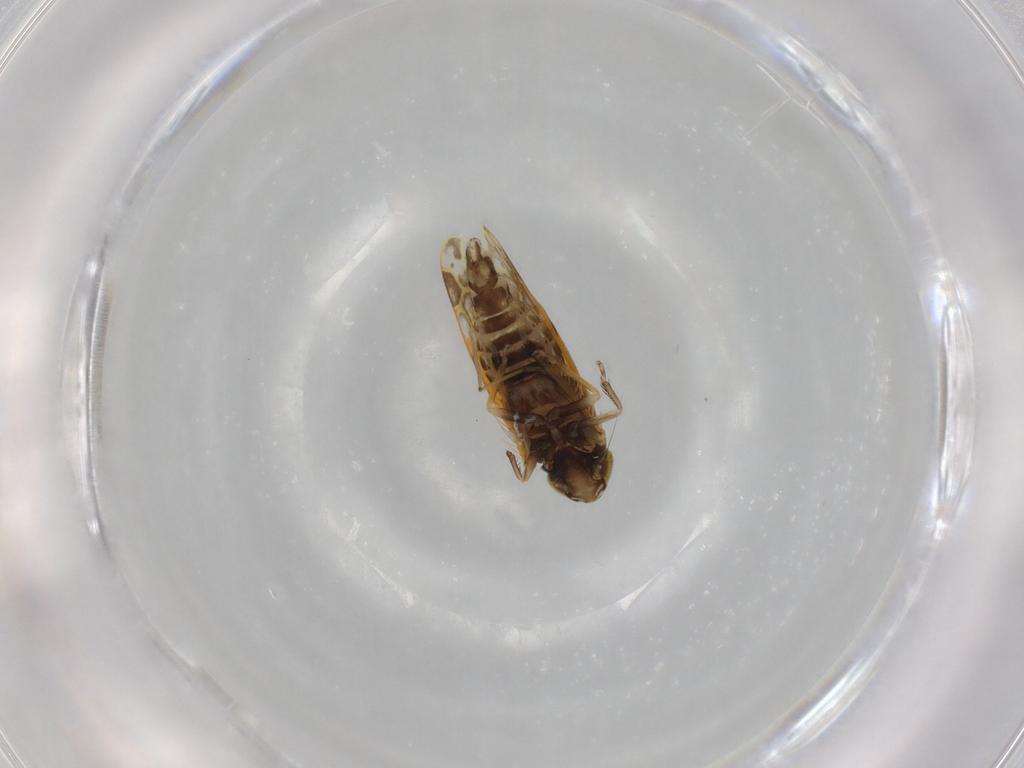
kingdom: Animalia
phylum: Arthropoda
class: Insecta
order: Hemiptera
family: Cicadellidae
